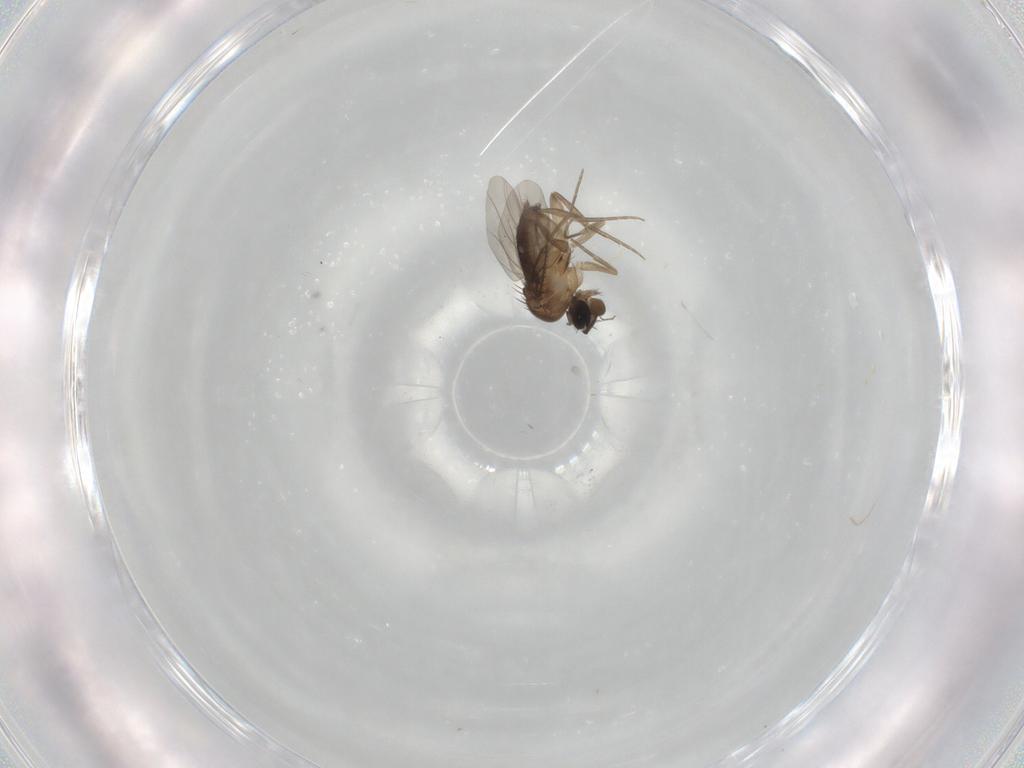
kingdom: Animalia
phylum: Arthropoda
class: Insecta
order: Diptera
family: Phoridae
